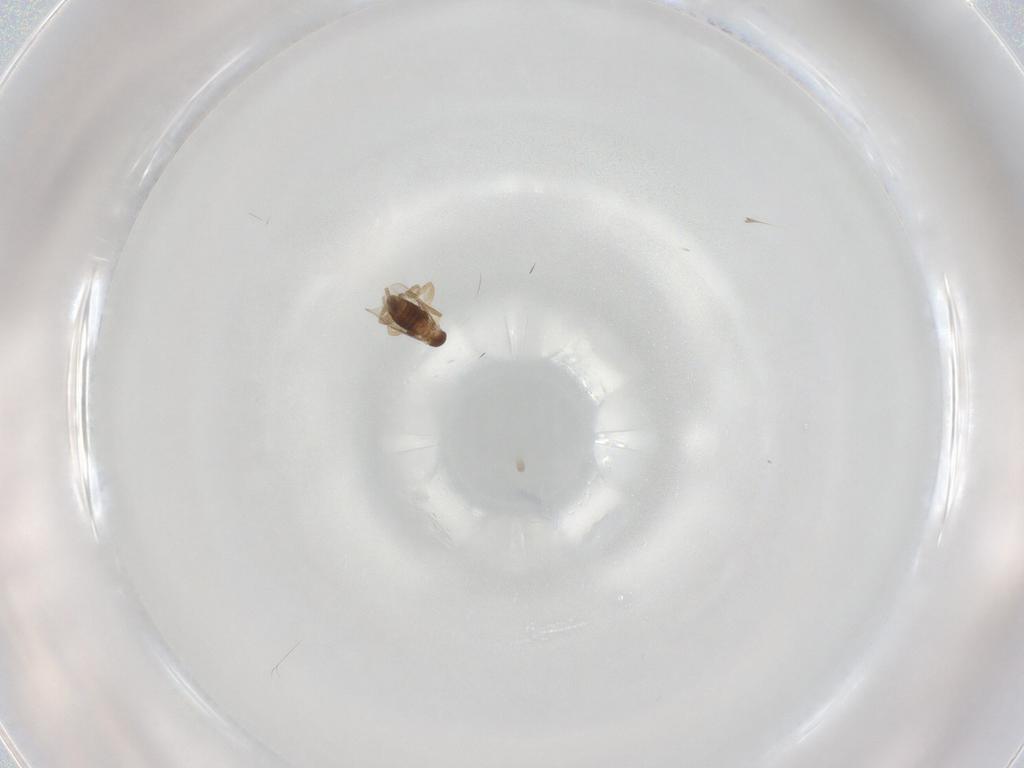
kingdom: Animalia
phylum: Arthropoda
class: Insecta
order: Diptera
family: Phoridae
